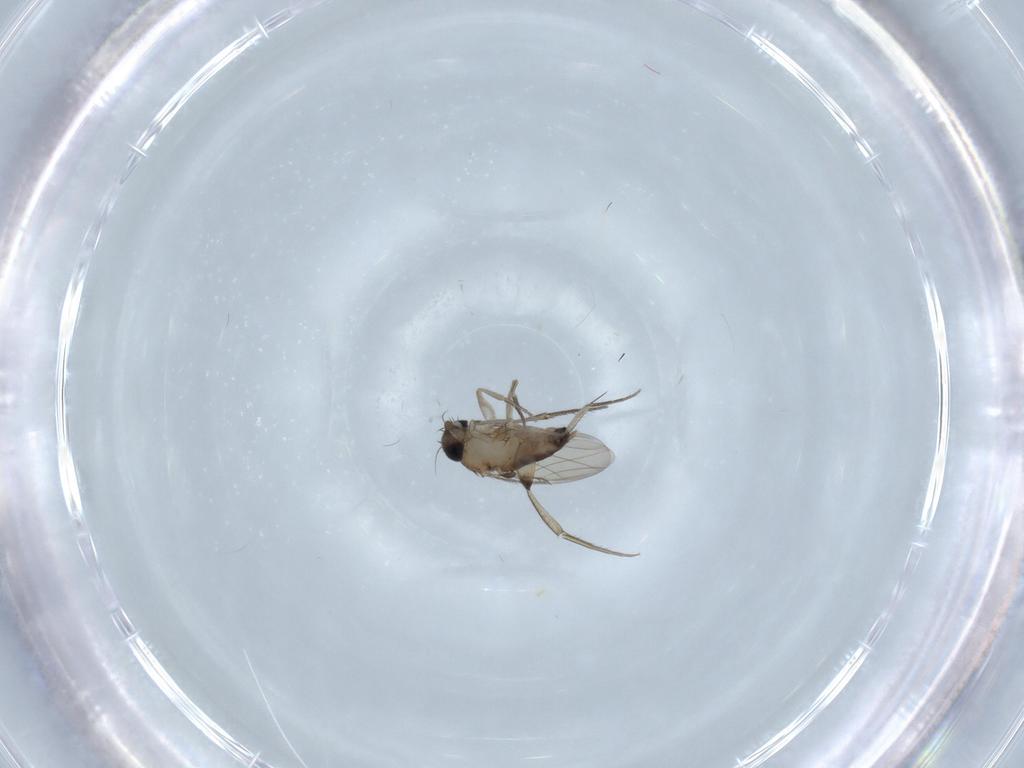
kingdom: Animalia
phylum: Arthropoda
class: Insecta
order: Diptera
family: Phoridae
